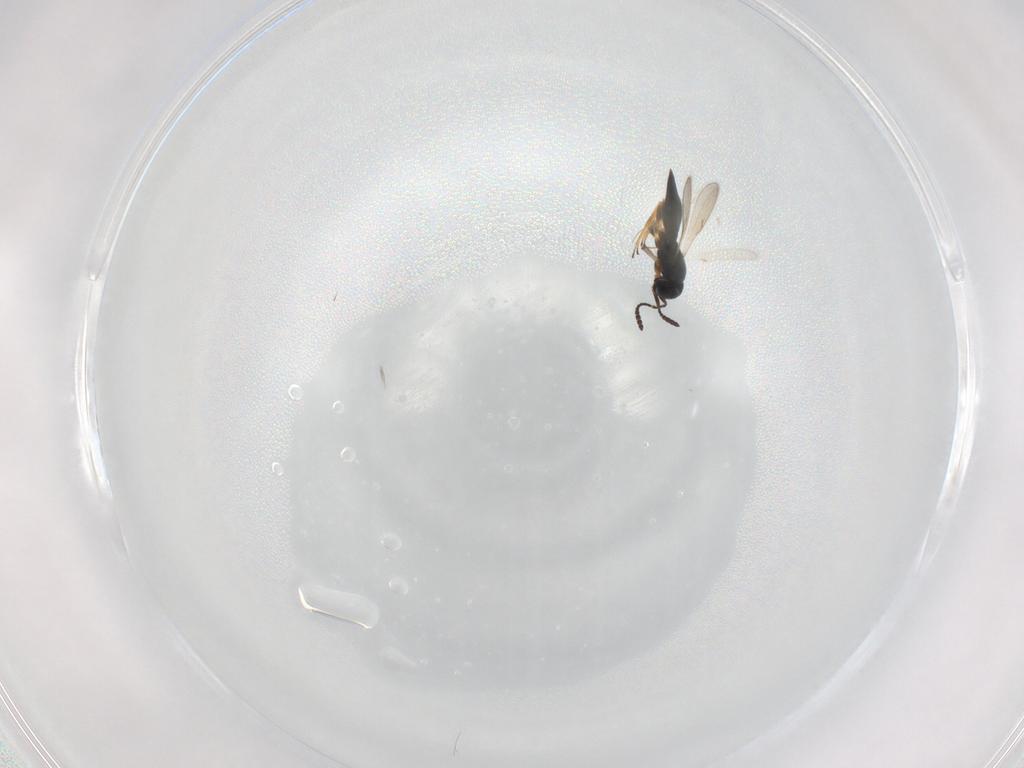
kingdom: Animalia
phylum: Arthropoda
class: Insecta
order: Hymenoptera
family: Scelionidae
